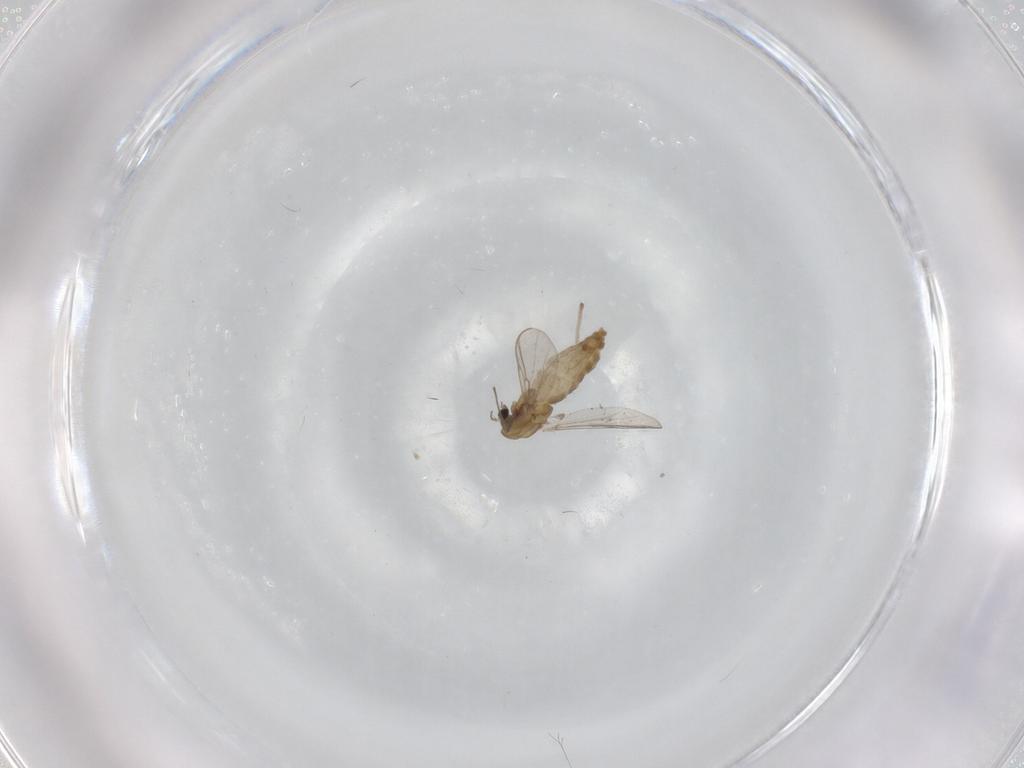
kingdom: Animalia
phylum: Arthropoda
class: Insecta
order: Diptera
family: Chironomidae
